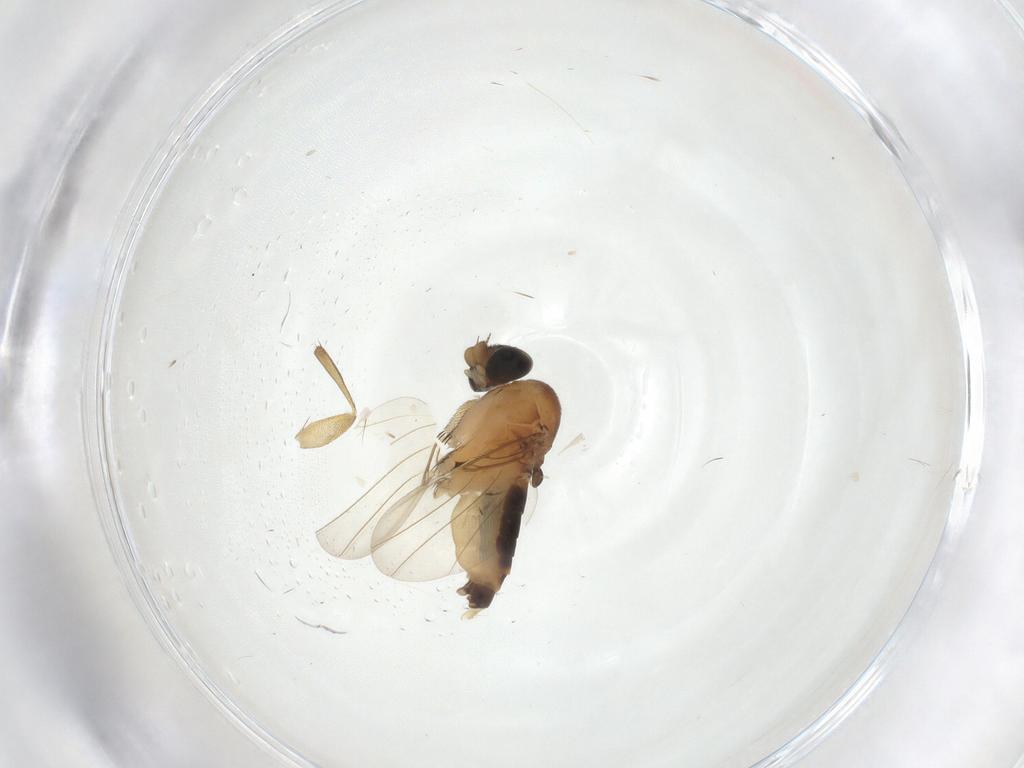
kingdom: Animalia
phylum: Arthropoda
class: Insecta
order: Diptera
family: Phoridae
